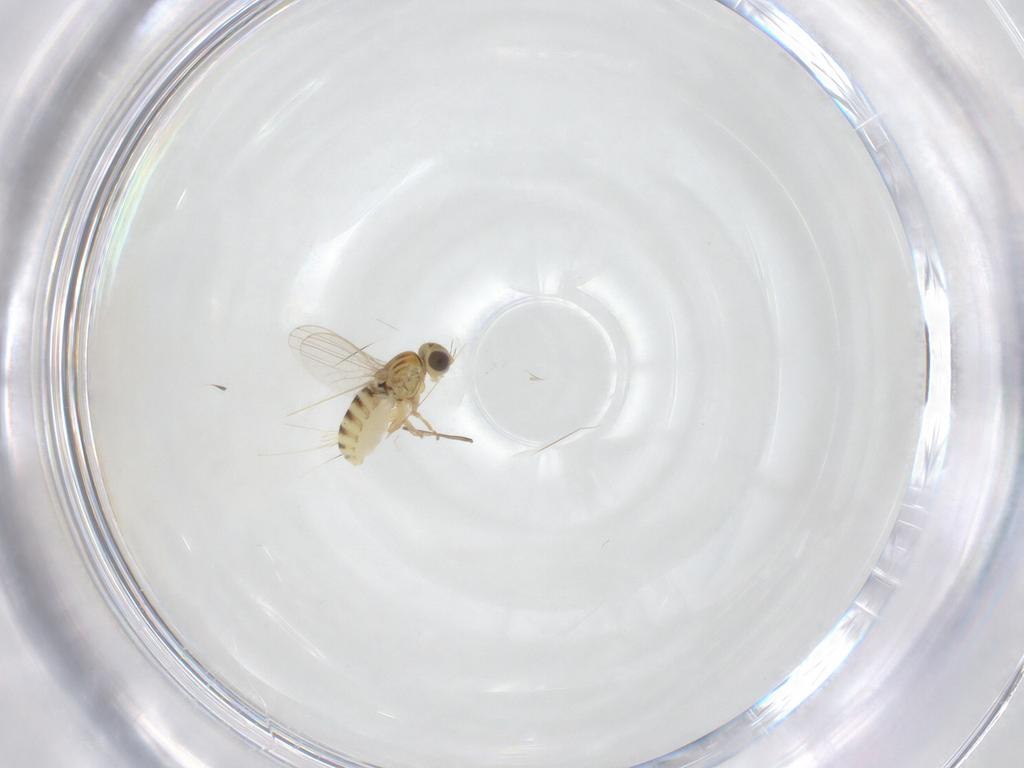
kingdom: Animalia
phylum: Arthropoda
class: Insecta
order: Diptera
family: Chyromyidae
